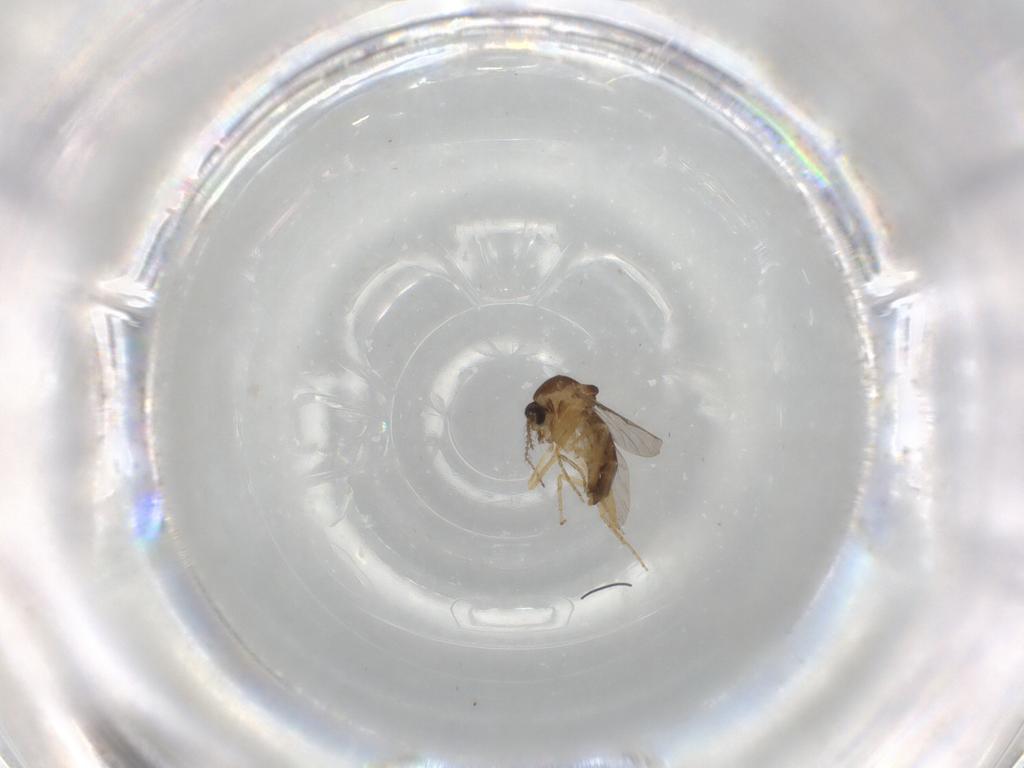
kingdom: Animalia
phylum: Arthropoda
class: Insecta
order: Diptera
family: Ceratopogonidae
